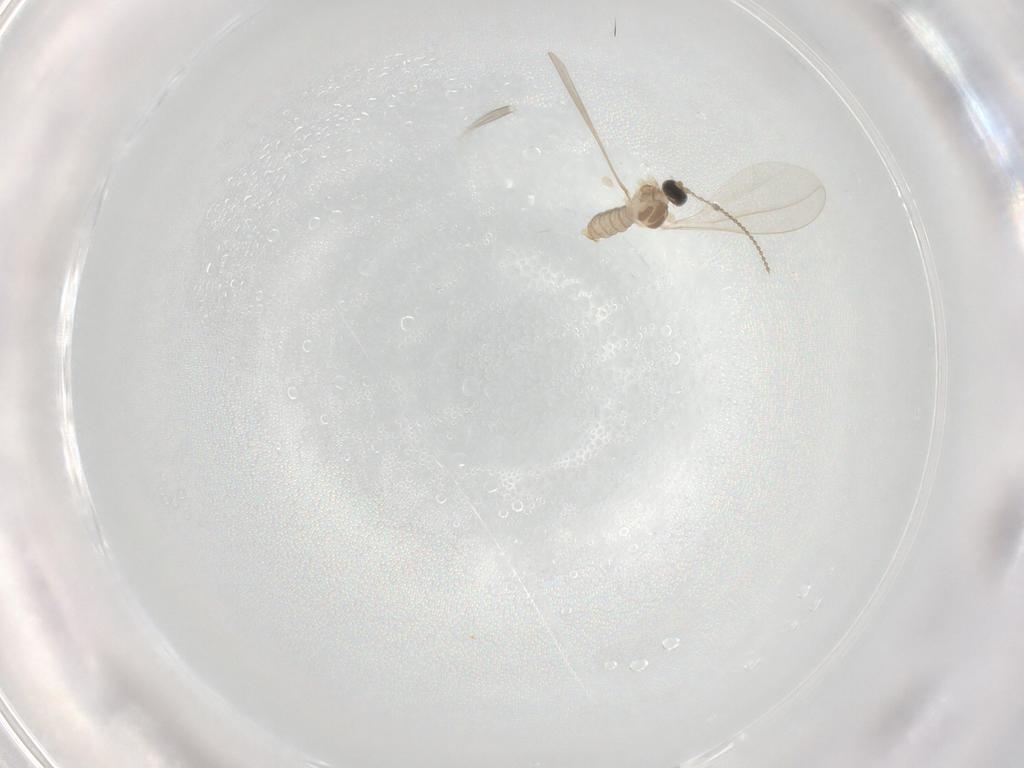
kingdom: Animalia
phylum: Arthropoda
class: Insecta
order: Diptera
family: Cecidomyiidae
